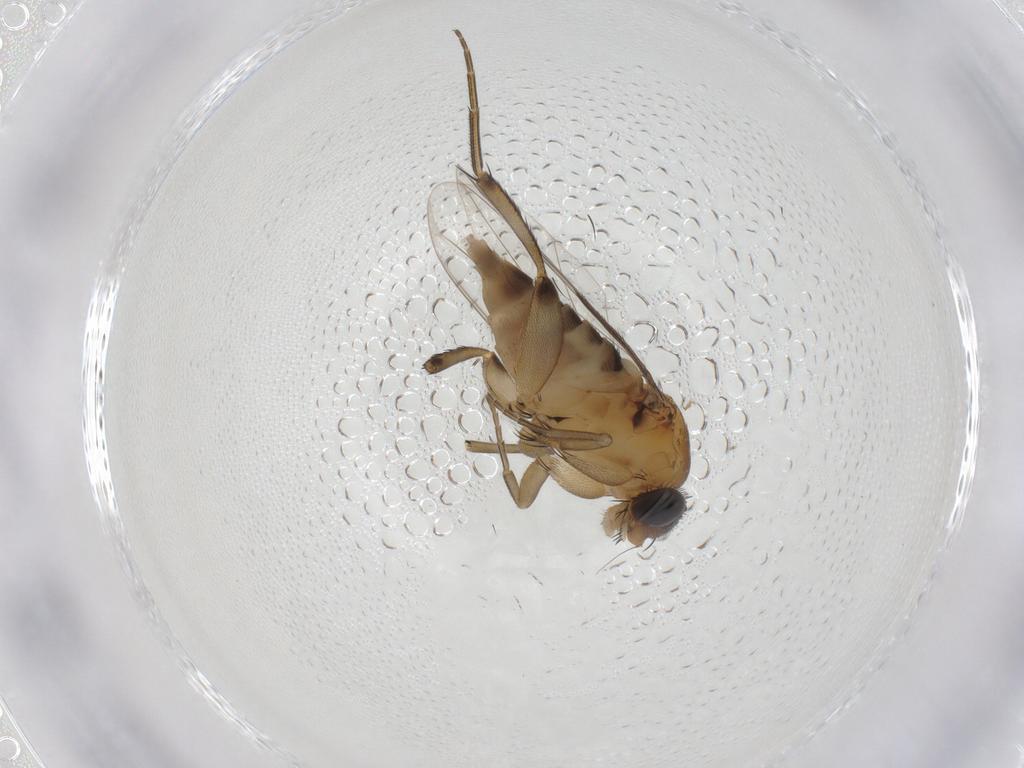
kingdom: Animalia
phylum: Arthropoda
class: Insecta
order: Diptera
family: Phoridae
